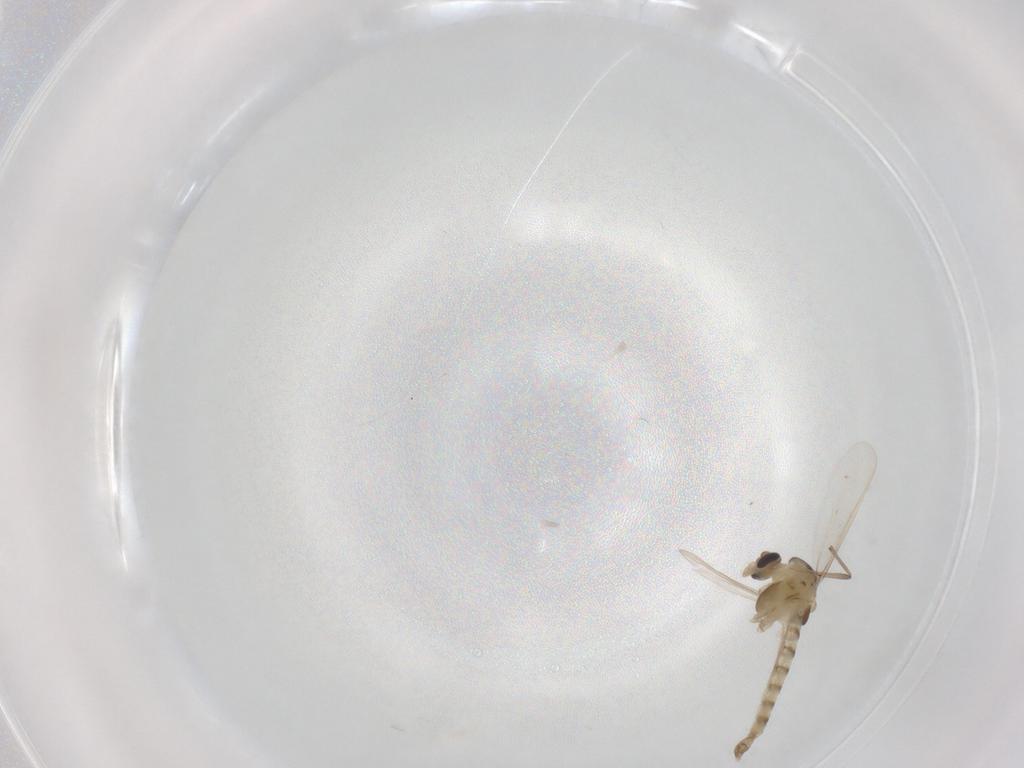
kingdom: Animalia
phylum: Arthropoda
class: Insecta
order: Diptera
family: Chironomidae
